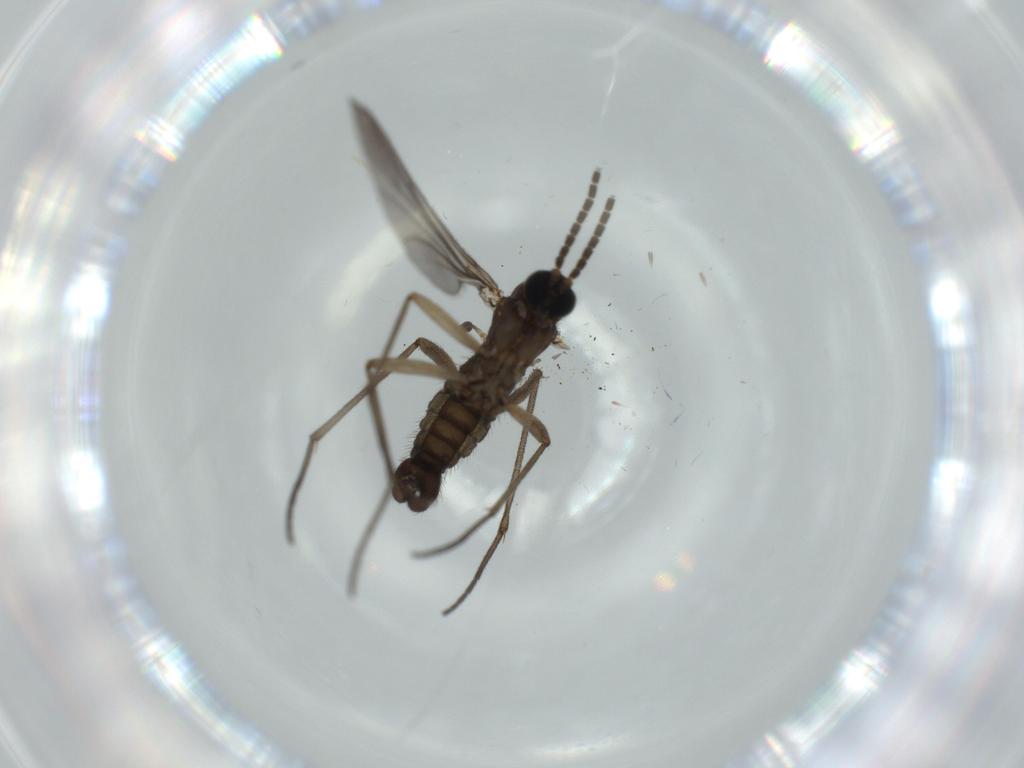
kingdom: Animalia
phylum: Arthropoda
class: Insecta
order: Diptera
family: Sciaridae
